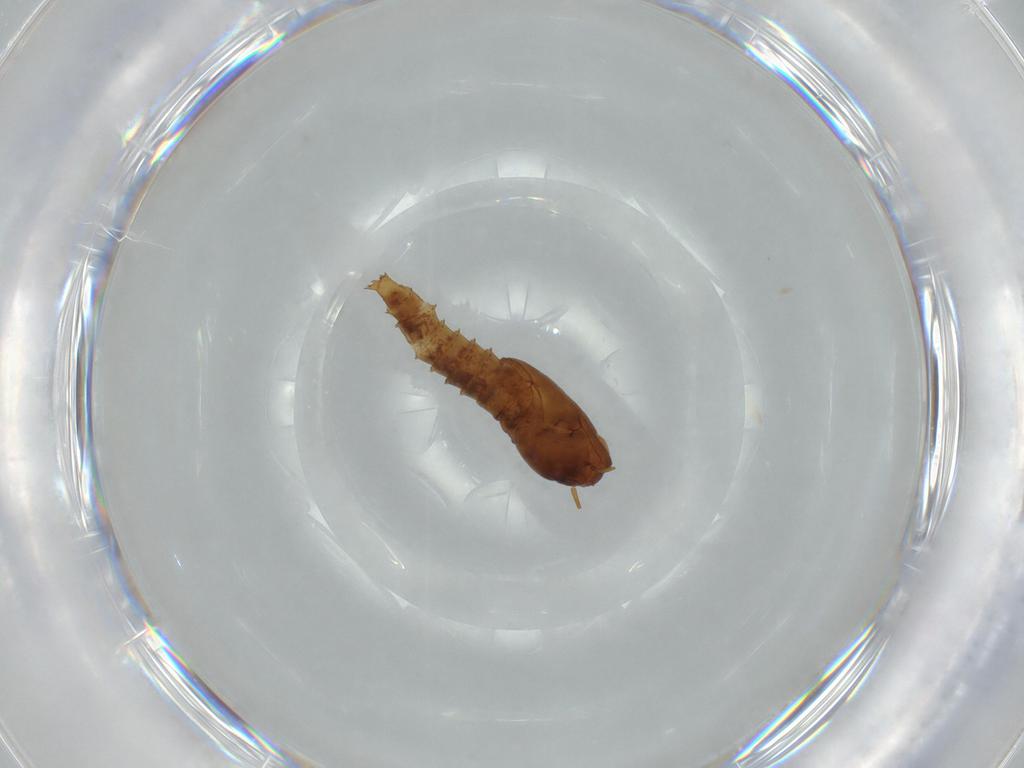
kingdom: Animalia
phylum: Arthropoda
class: Insecta
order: Diptera
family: Ceratopogonidae
